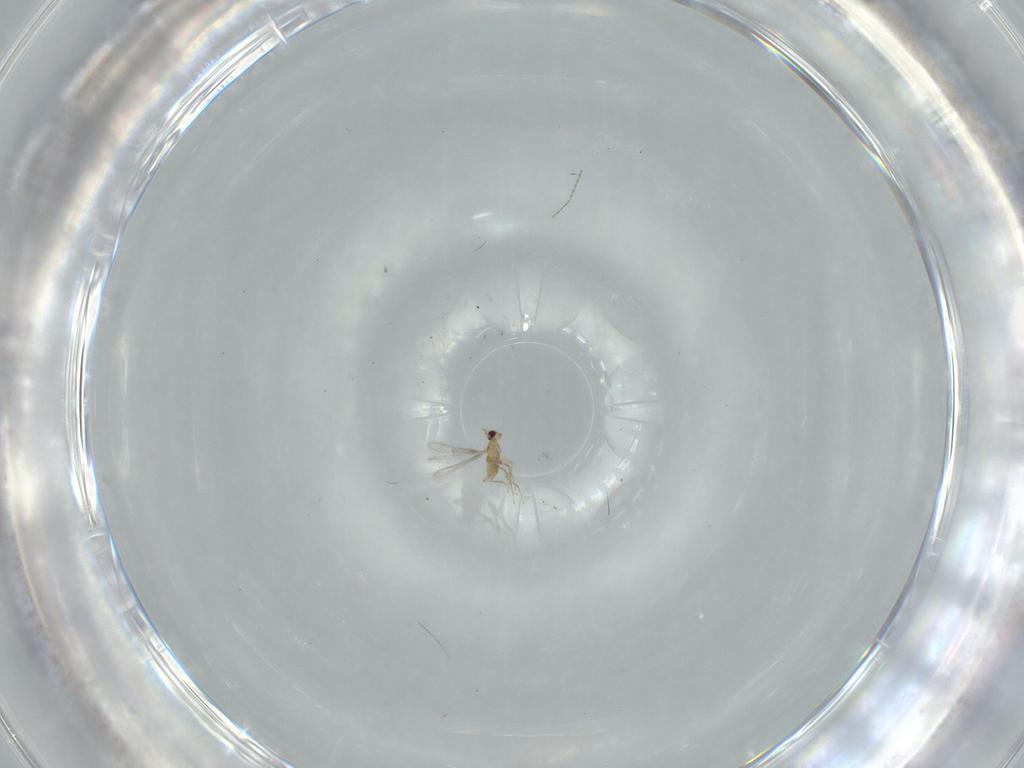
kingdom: Animalia
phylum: Arthropoda
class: Insecta
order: Hymenoptera
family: Mymaridae
